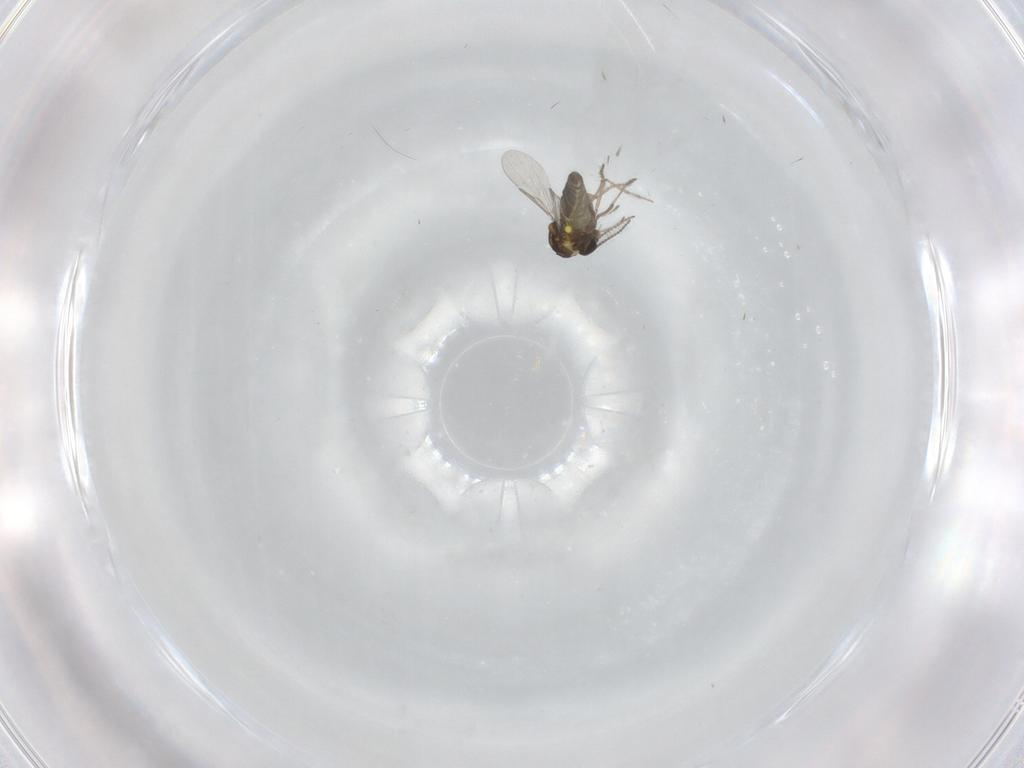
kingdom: Animalia
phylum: Arthropoda
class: Insecta
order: Diptera
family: Ceratopogonidae
